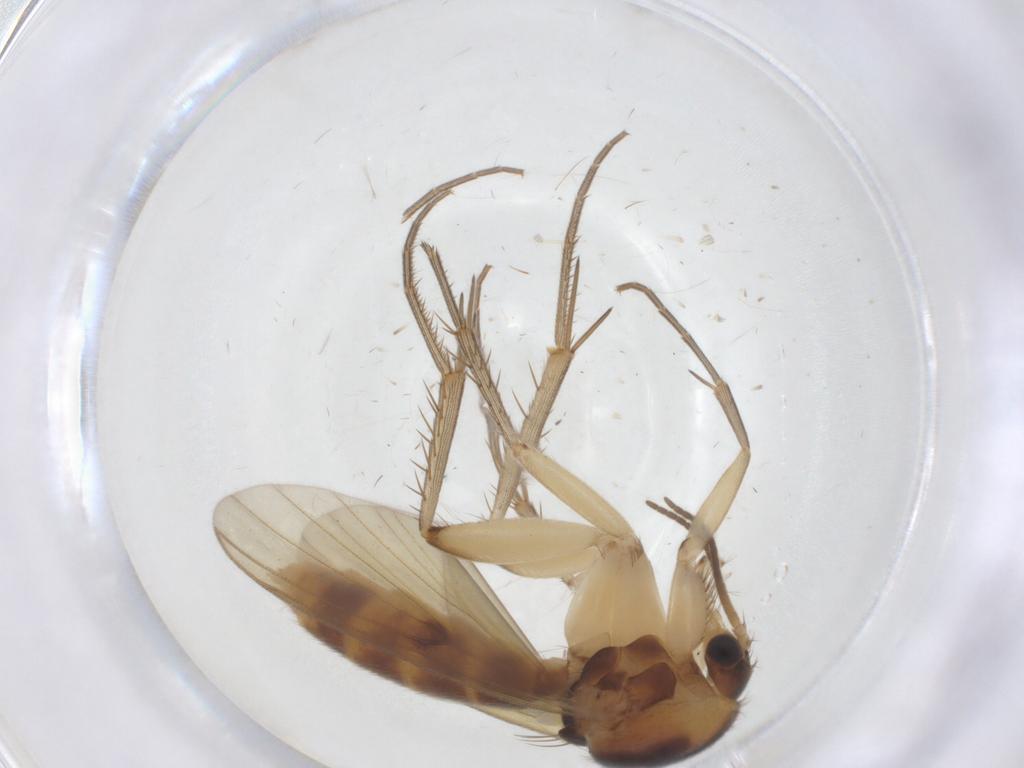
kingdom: Animalia
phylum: Arthropoda
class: Insecta
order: Diptera
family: Mycetophilidae
